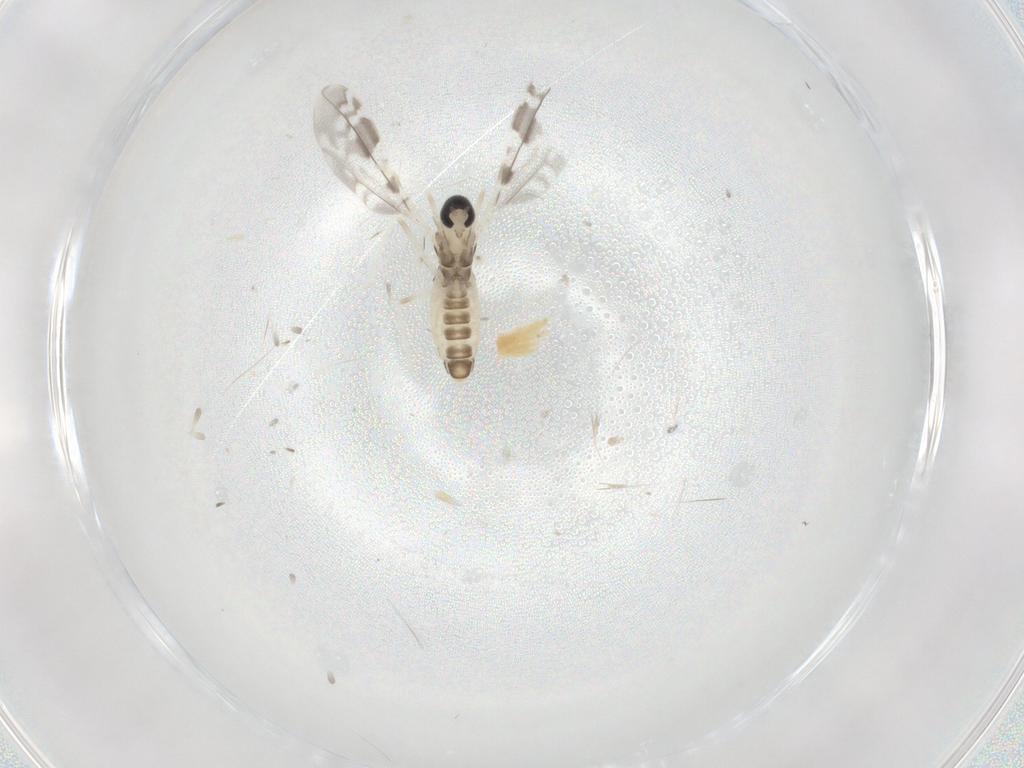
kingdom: Animalia
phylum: Arthropoda
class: Insecta
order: Diptera
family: Cecidomyiidae
